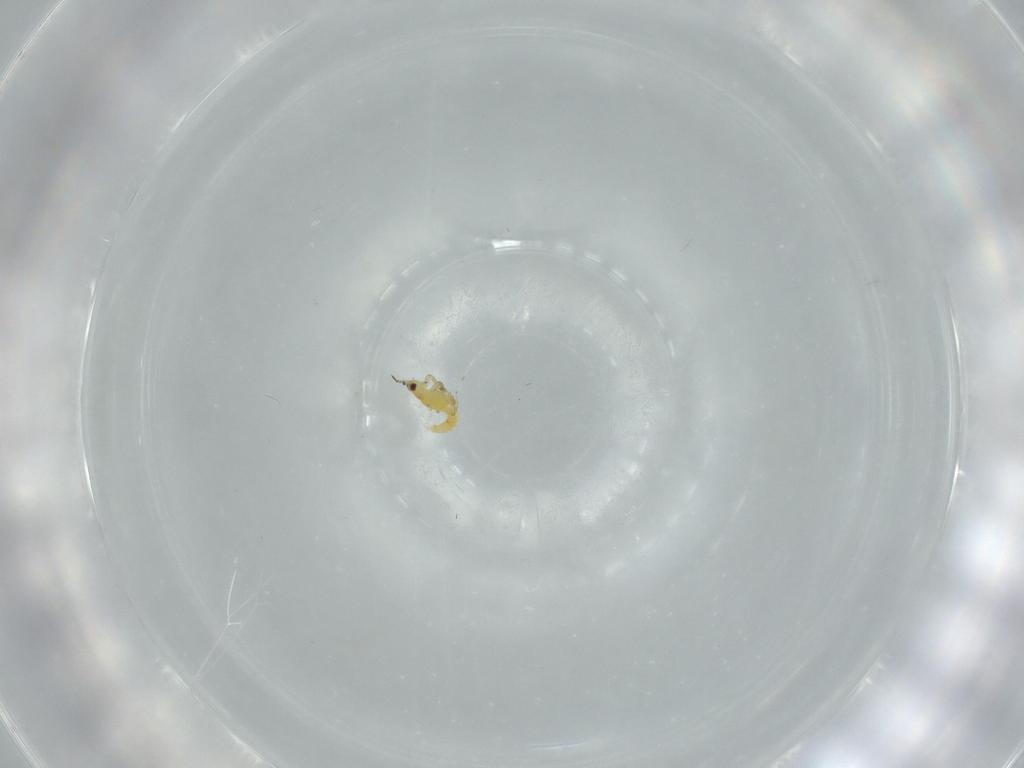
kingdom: Animalia
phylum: Arthropoda
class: Insecta
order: Thysanoptera
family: Thripidae
